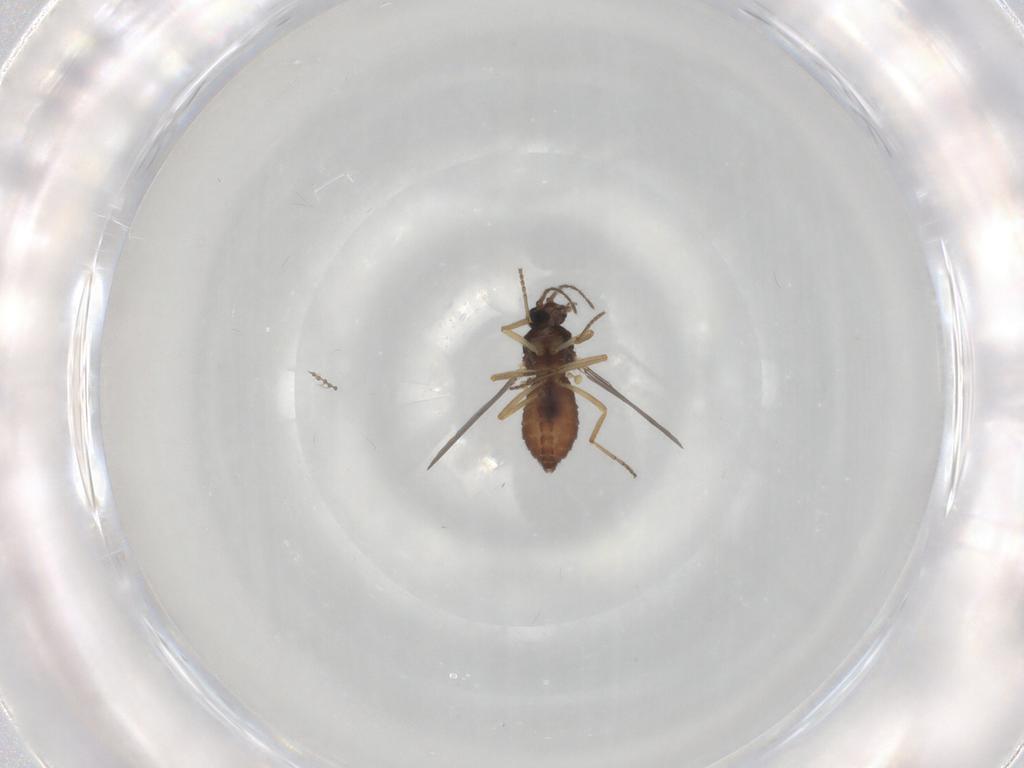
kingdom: Animalia
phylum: Arthropoda
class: Insecta
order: Diptera
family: Ceratopogonidae
